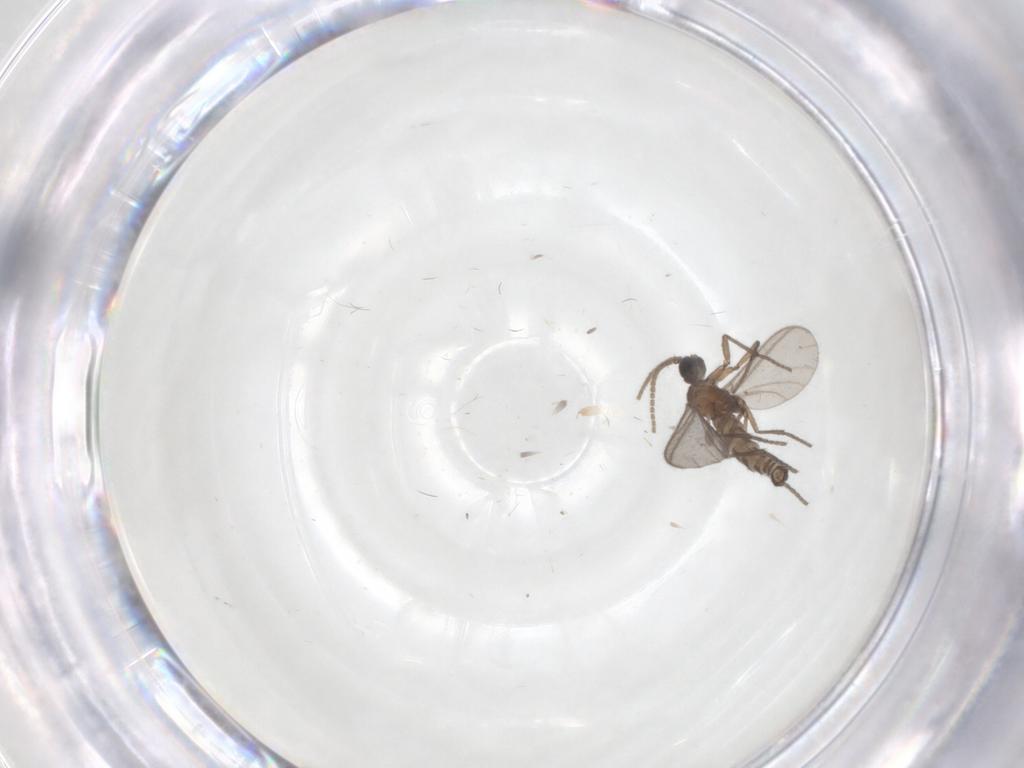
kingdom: Animalia
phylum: Arthropoda
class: Insecta
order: Diptera
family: Sciaridae
